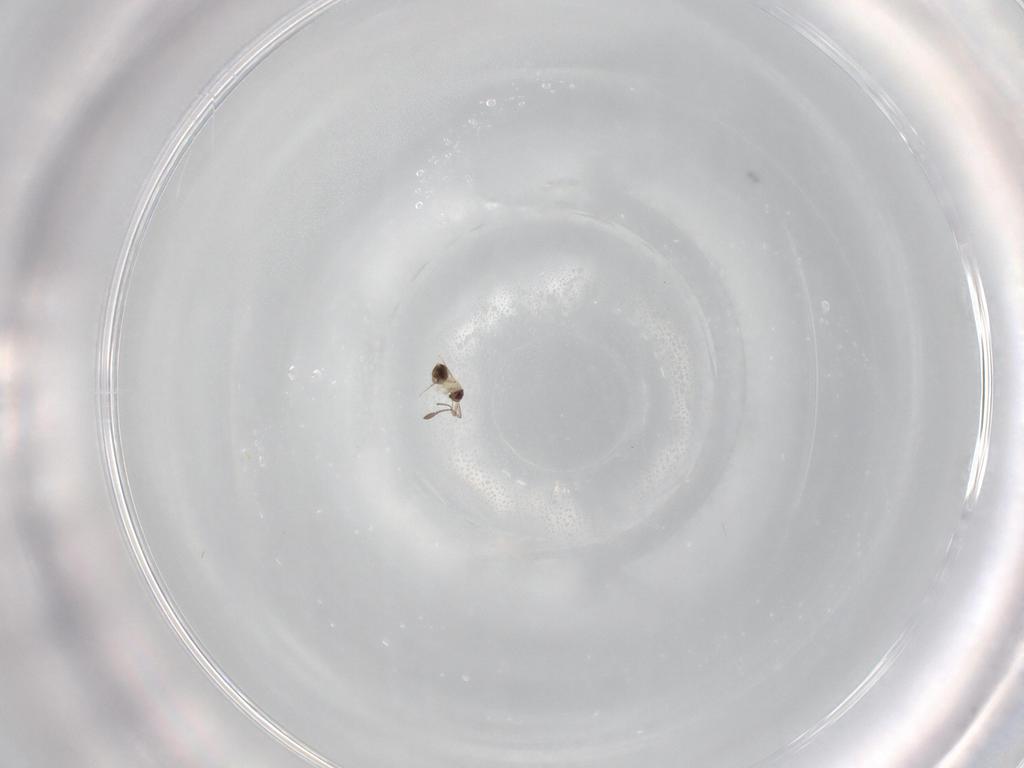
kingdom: Animalia
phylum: Arthropoda
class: Insecta
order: Hymenoptera
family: Mymaridae
